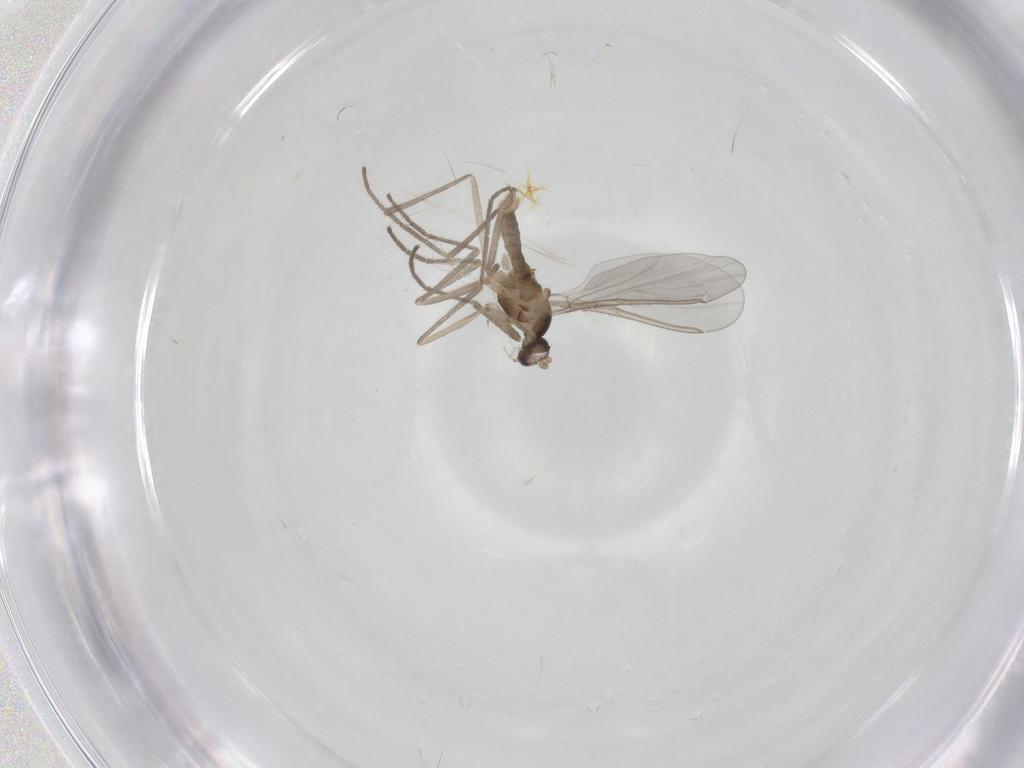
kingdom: Animalia
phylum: Arthropoda
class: Insecta
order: Diptera
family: Cecidomyiidae
